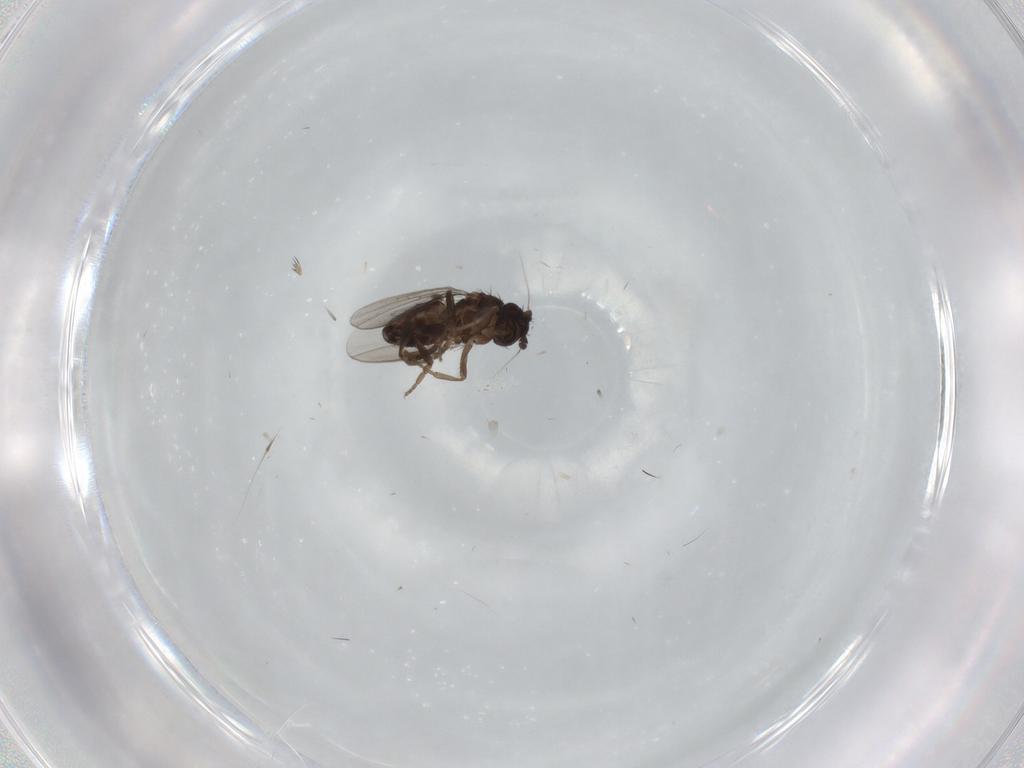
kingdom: Animalia
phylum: Arthropoda
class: Insecta
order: Diptera
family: Sphaeroceridae
